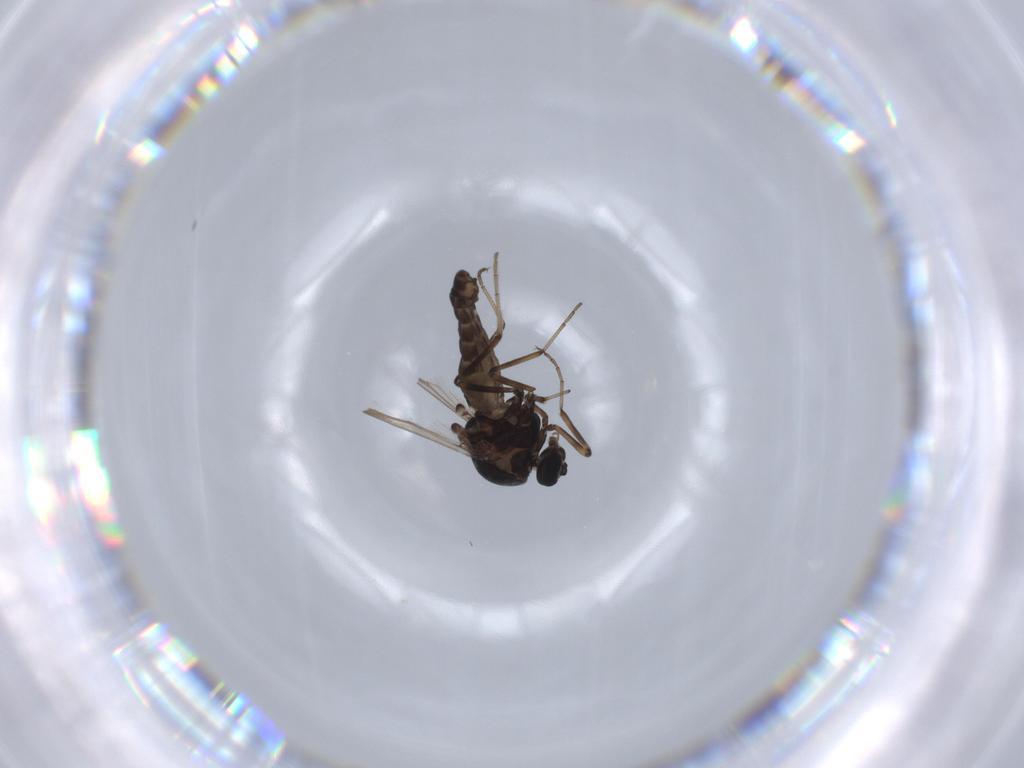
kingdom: Animalia
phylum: Arthropoda
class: Insecta
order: Diptera
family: Ceratopogonidae
